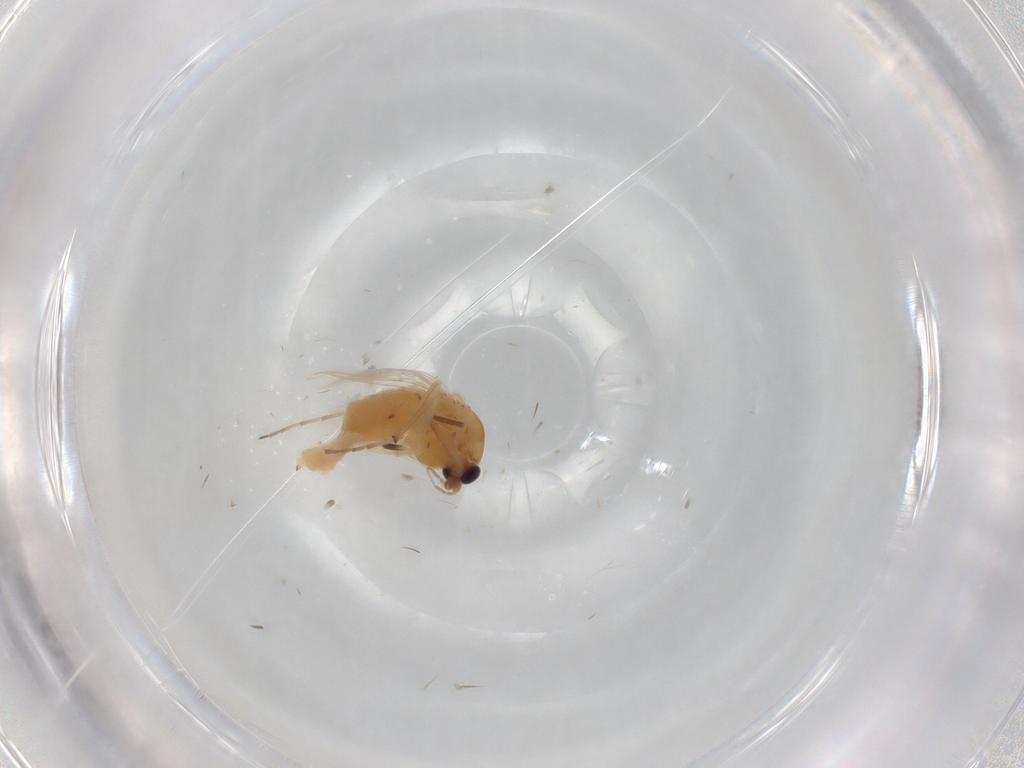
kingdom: Animalia
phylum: Arthropoda
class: Insecta
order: Diptera
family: Chironomidae
